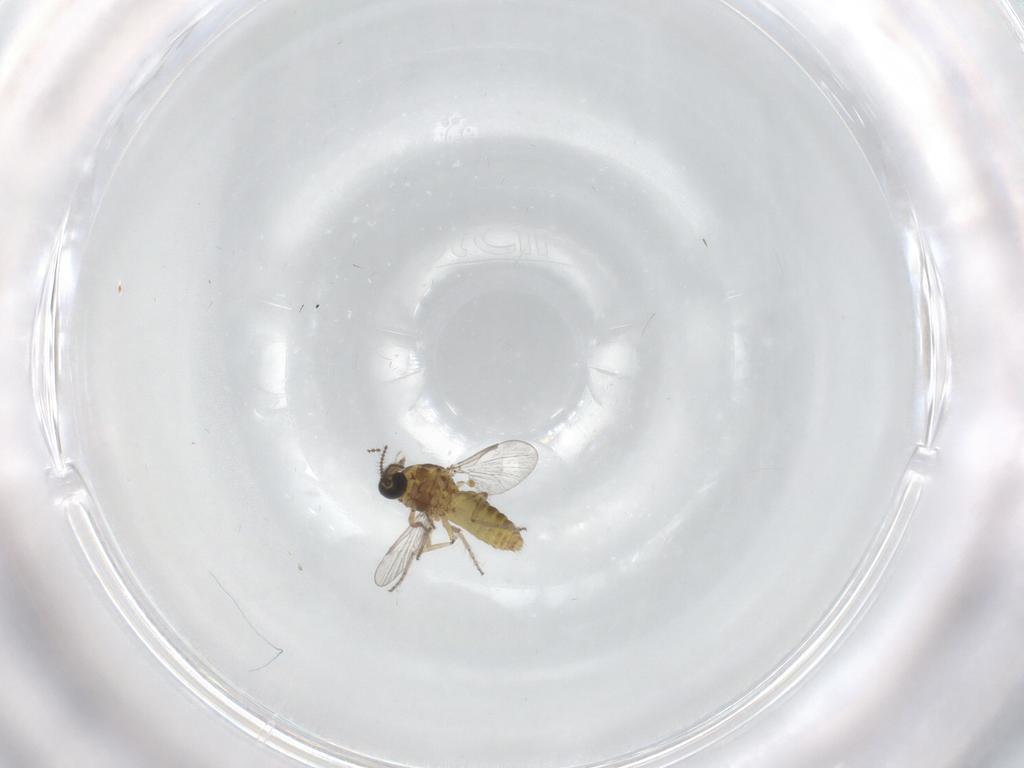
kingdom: Animalia
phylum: Arthropoda
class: Insecta
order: Diptera
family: Ceratopogonidae
